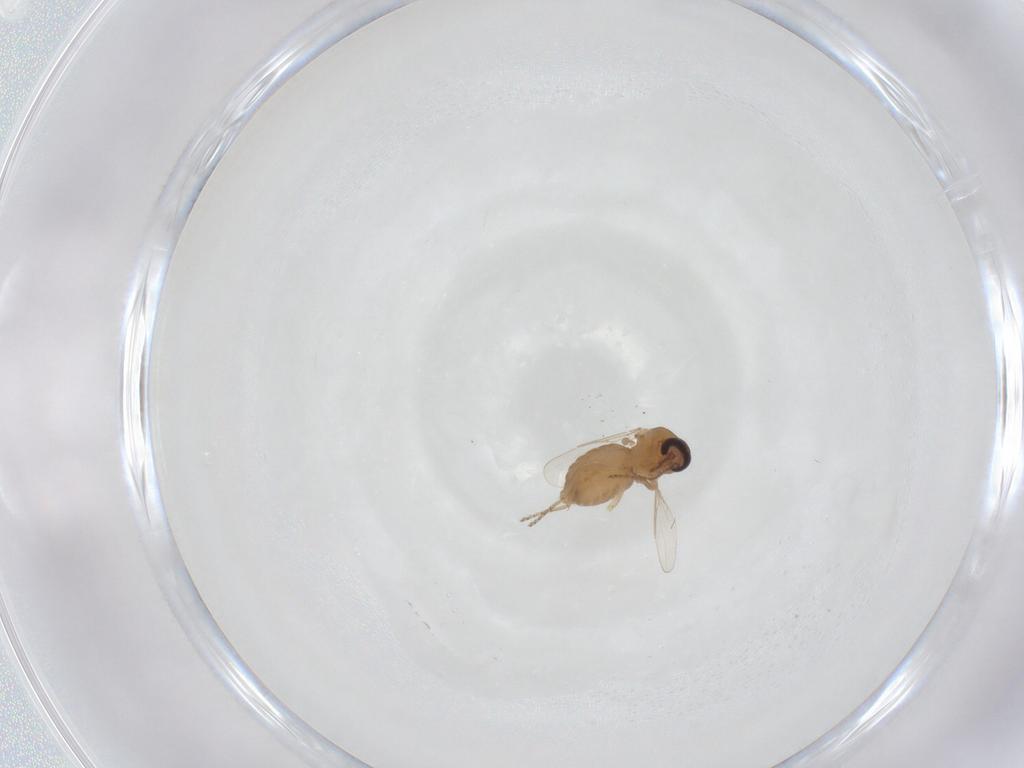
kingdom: Animalia
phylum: Arthropoda
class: Insecta
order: Diptera
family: Ceratopogonidae
